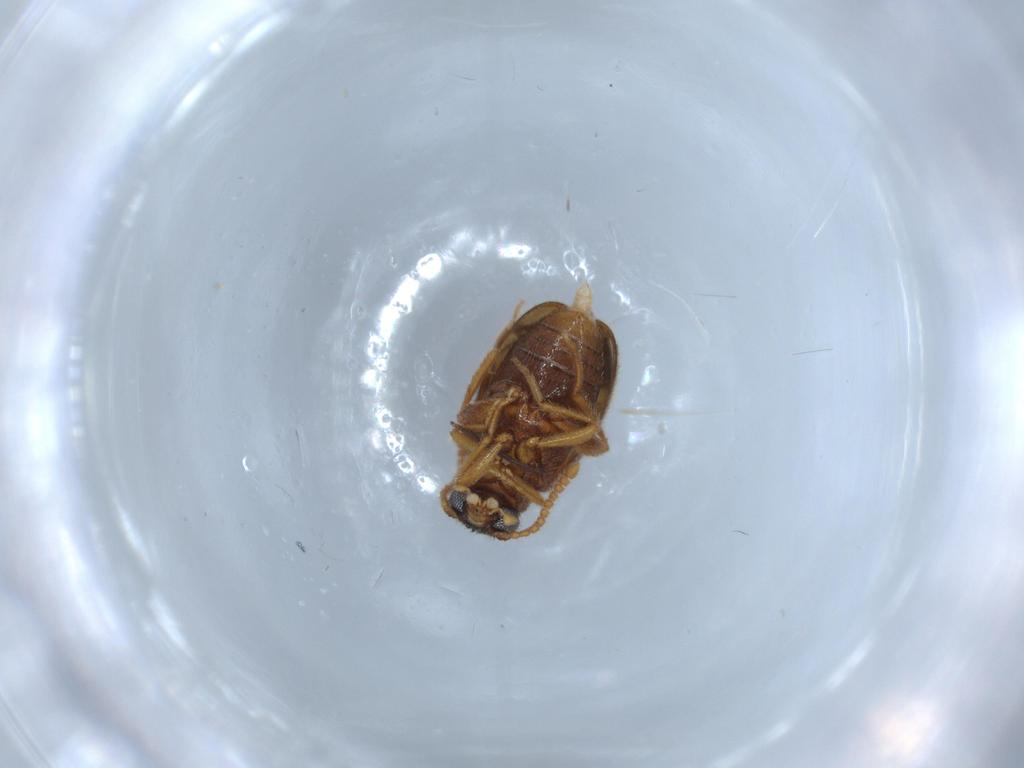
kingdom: Animalia
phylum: Arthropoda
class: Insecta
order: Coleoptera
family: Aderidae
